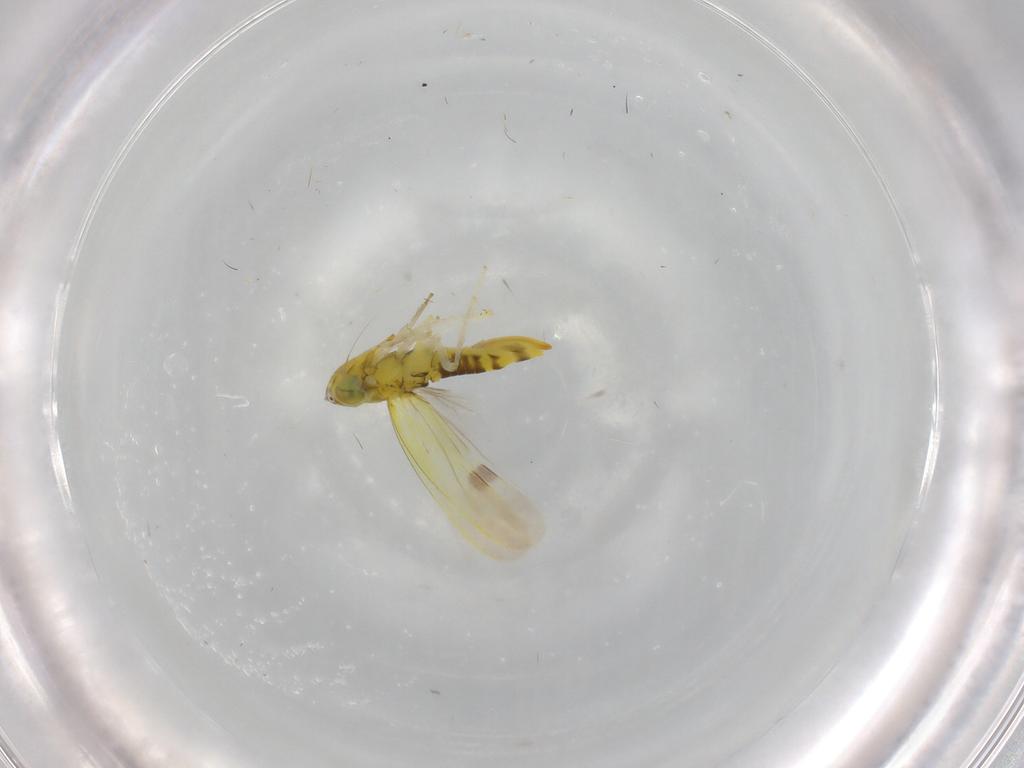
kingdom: Animalia
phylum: Arthropoda
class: Insecta
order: Hemiptera
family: Cicadellidae
